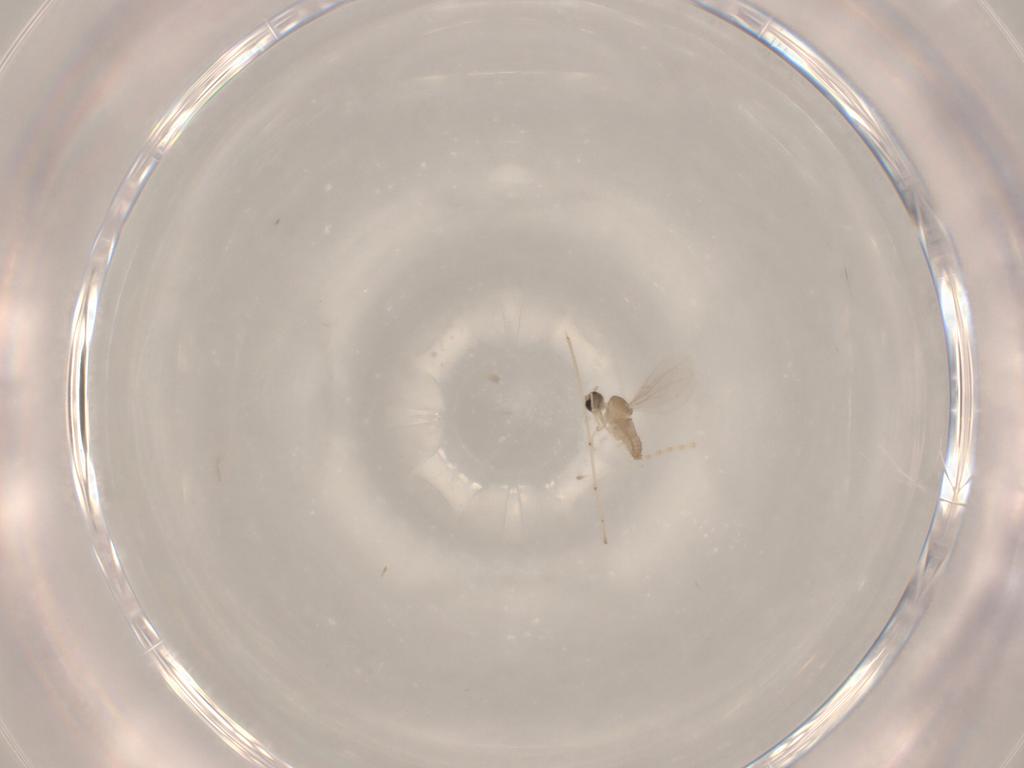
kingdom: Animalia
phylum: Arthropoda
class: Insecta
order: Diptera
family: Cecidomyiidae
